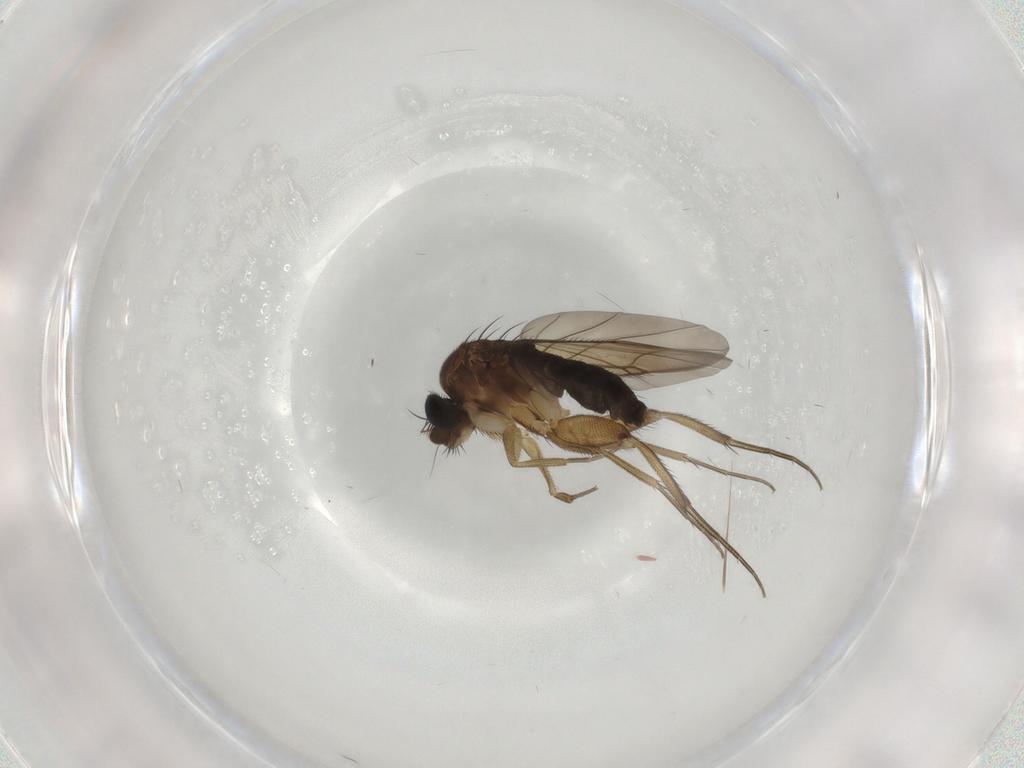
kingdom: Animalia
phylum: Arthropoda
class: Insecta
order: Diptera
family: Phoridae
